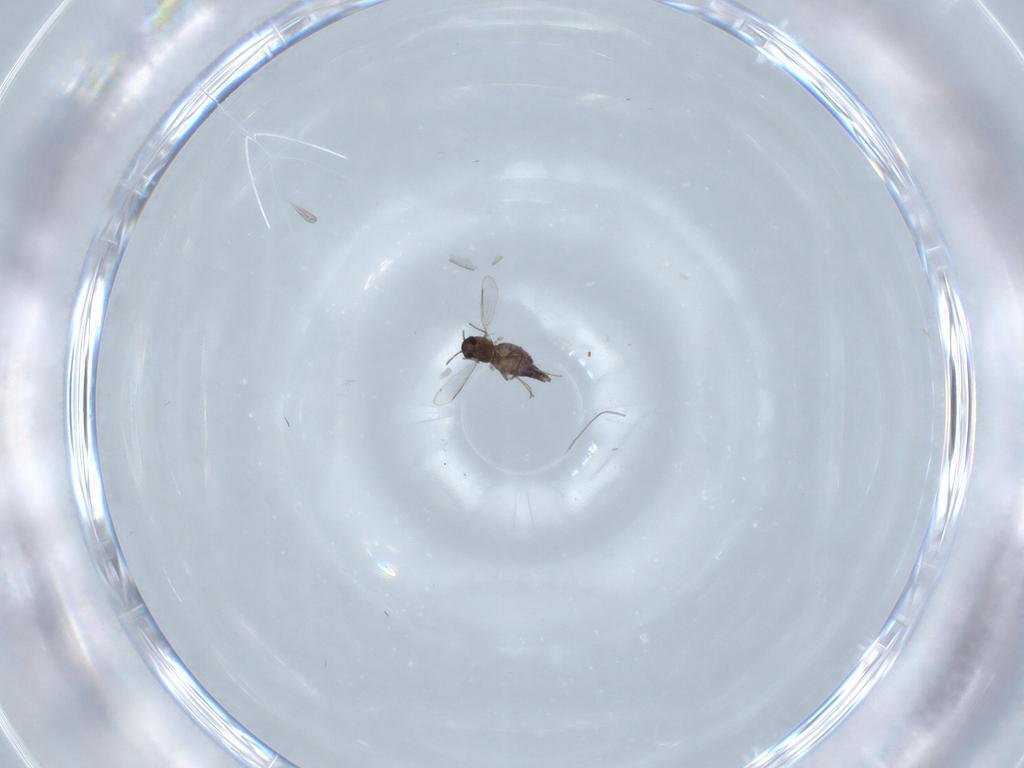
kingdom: Animalia
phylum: Arthropoda
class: Insecta
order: Diptera
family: Chironomidae
